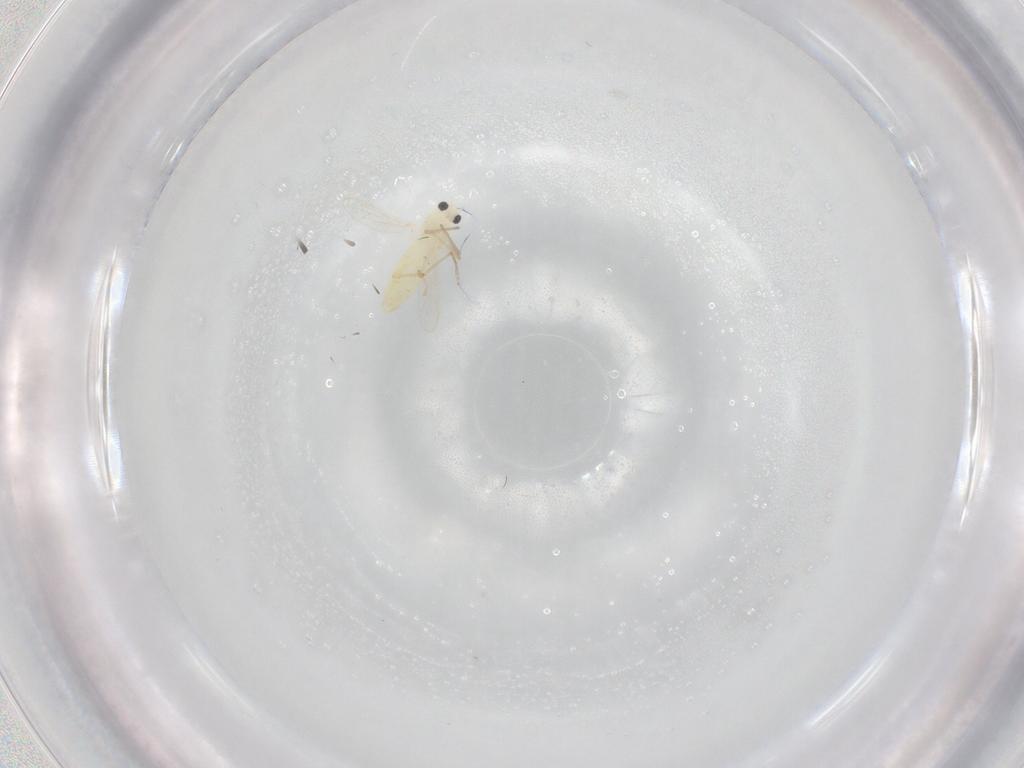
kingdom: Animalia
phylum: Arthropoda
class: Insecta
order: Diptera
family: Chironomidae
